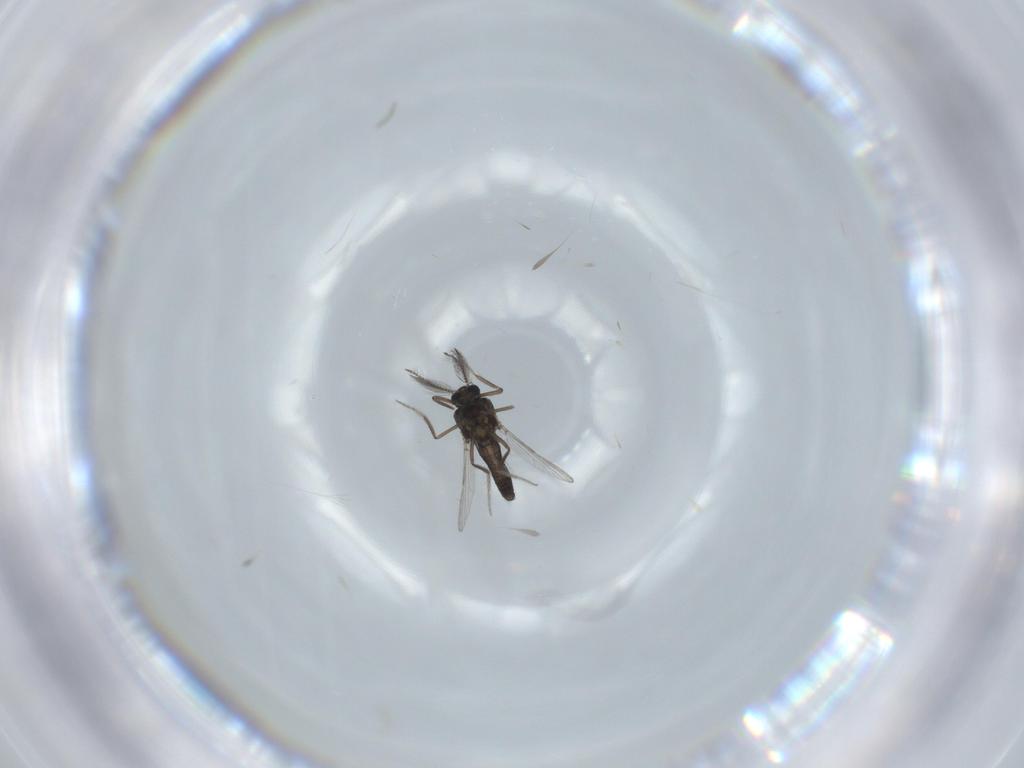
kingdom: Animalia
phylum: Arthropoda
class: Insecta
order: Diptera
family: Ceratopogonidae
